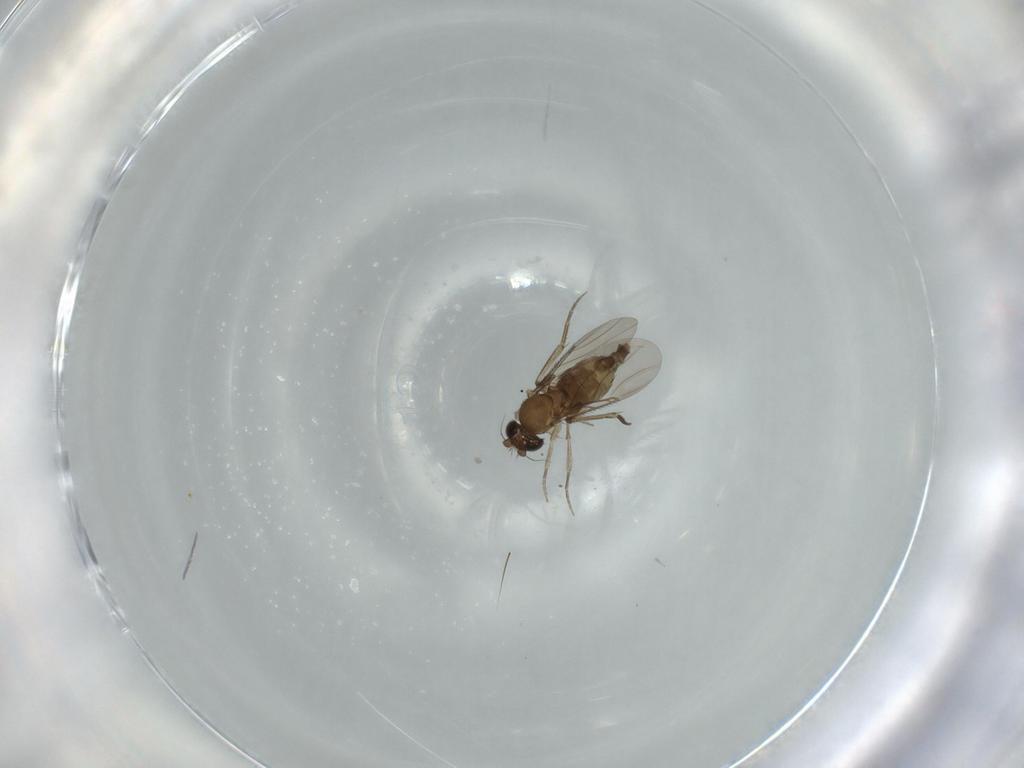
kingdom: Animalia
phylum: Arthropoda
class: Insecta
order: Diptera
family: Phoridae
